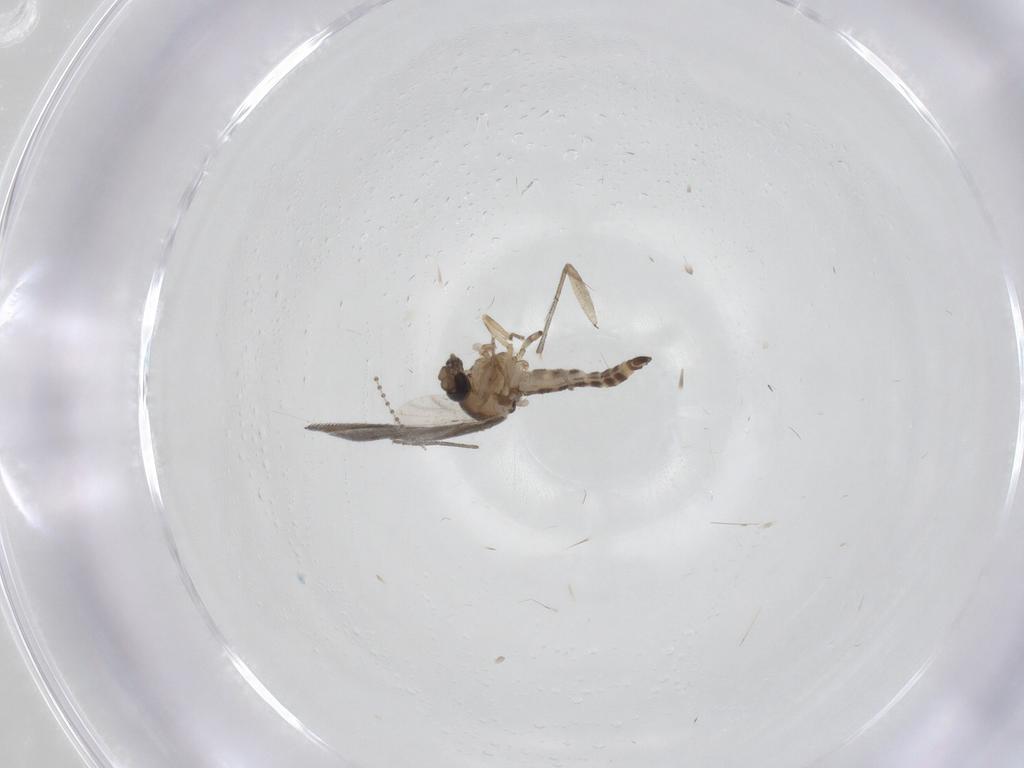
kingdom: Animalia
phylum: Arthropoda
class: Insecta
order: Diptera
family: Ceratopogonidae
